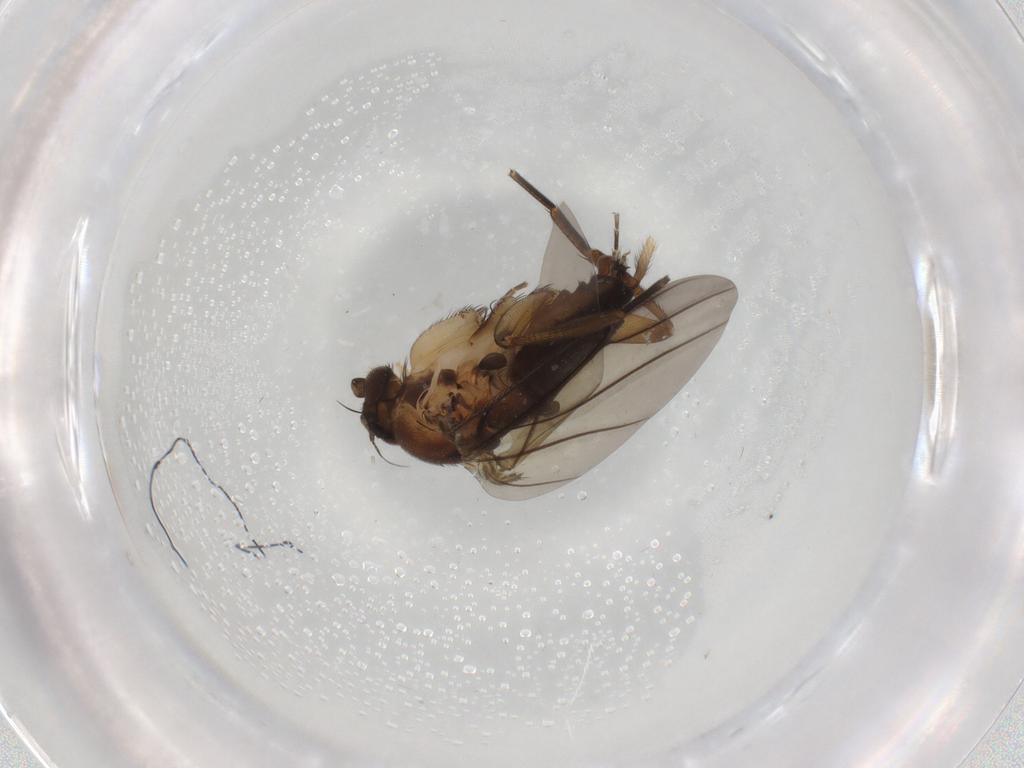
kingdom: Animalia
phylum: Arthropoda
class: Insecta
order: Diptera
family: Phoridae
